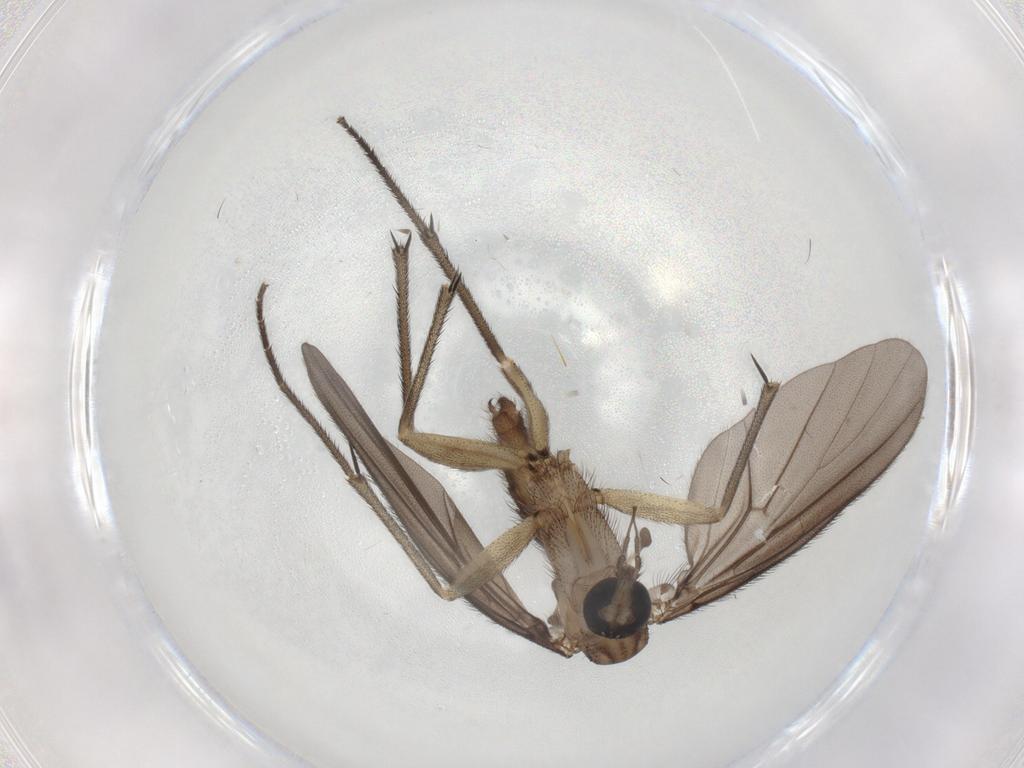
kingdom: Animalia
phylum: Arthropoda
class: Insecta
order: Diptera
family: Diadocidiidae
